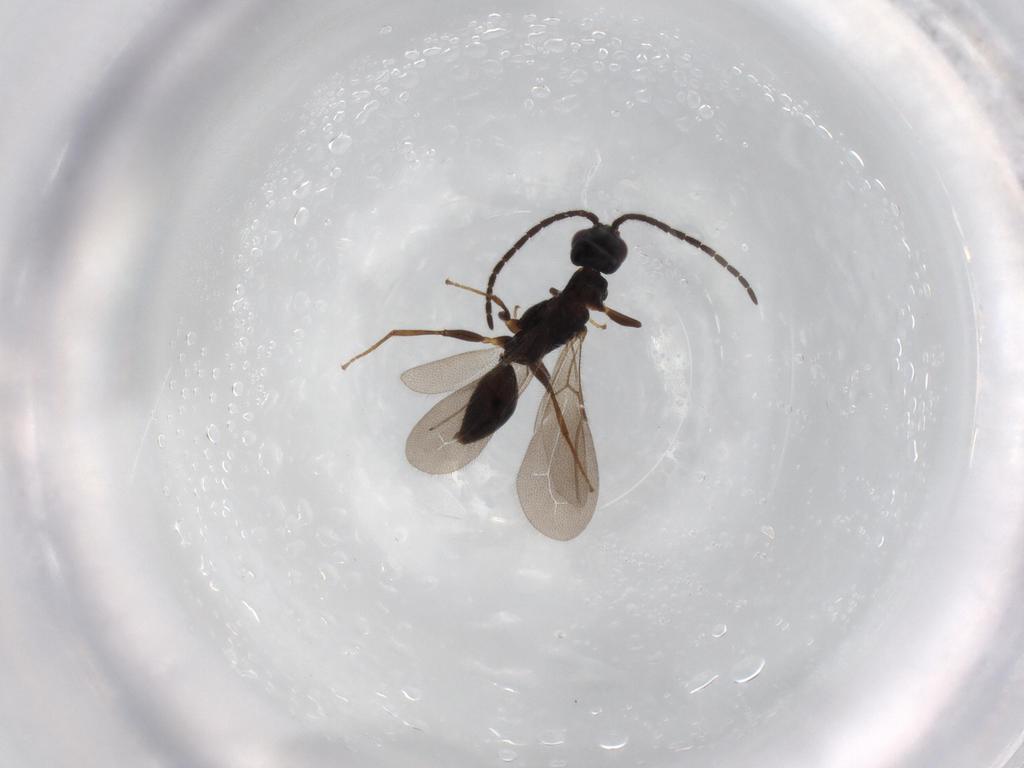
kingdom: Animalia
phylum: Arthropoda
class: Insecta
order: Hymenoptera
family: Bethylidae
